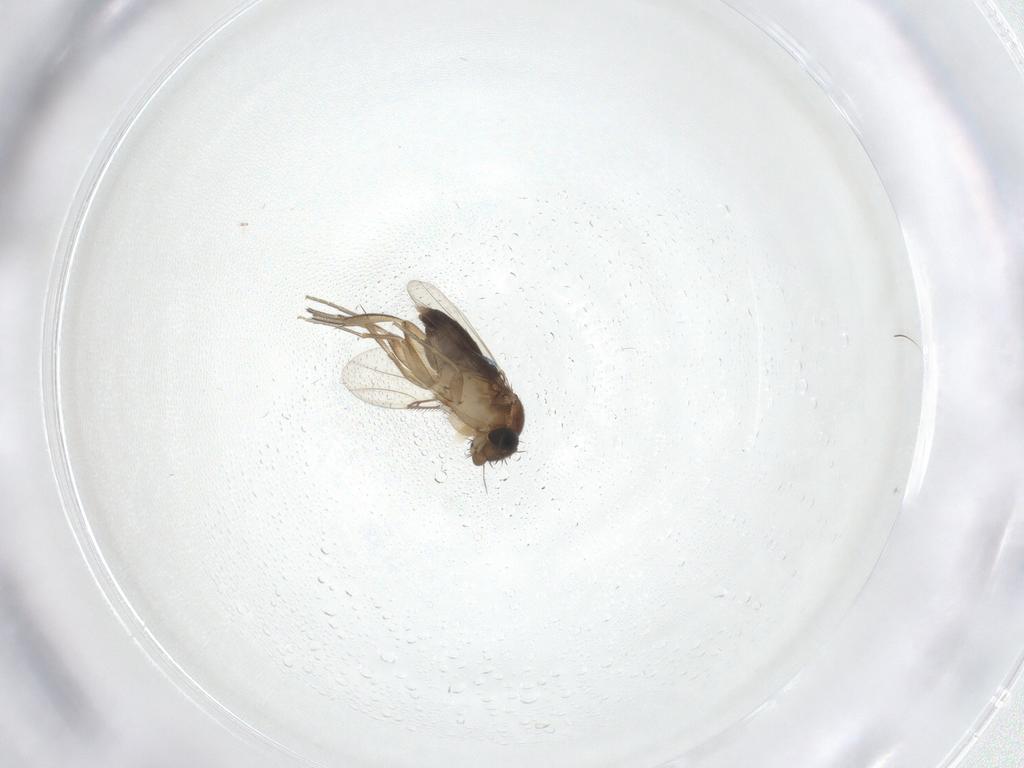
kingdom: Animalia
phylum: Arthropoda
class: Insecta
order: Diptera
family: Phoridae
